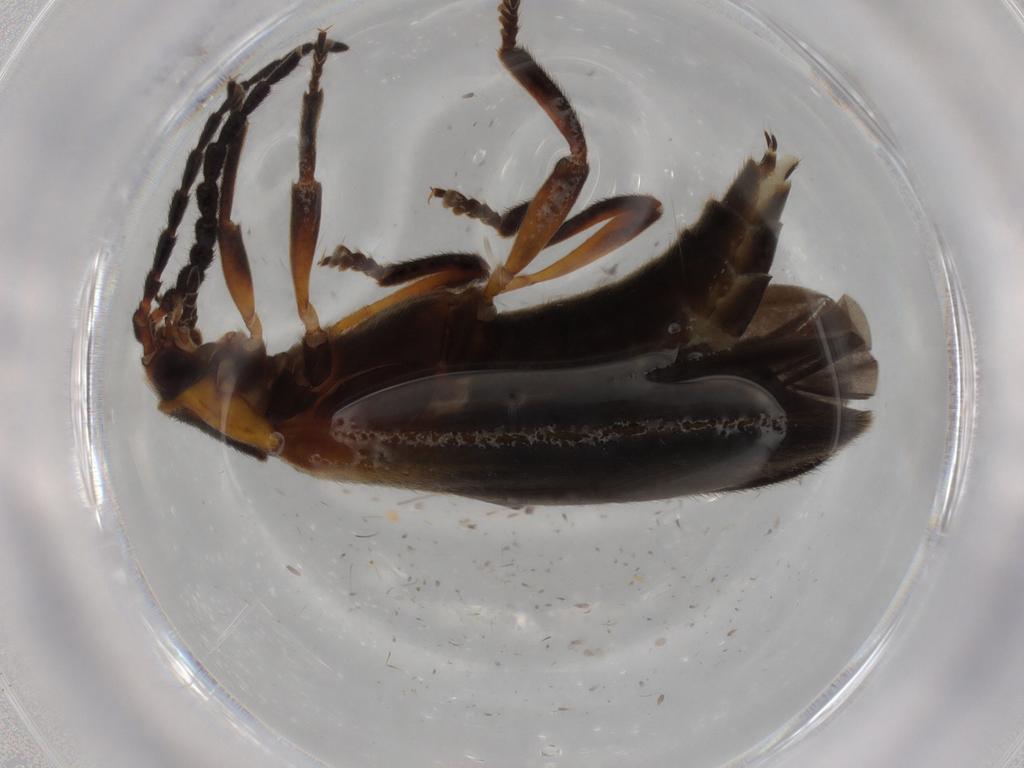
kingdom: Animalia
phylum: Arthropoda
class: Insecta
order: Coleoptera
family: Lycidae
